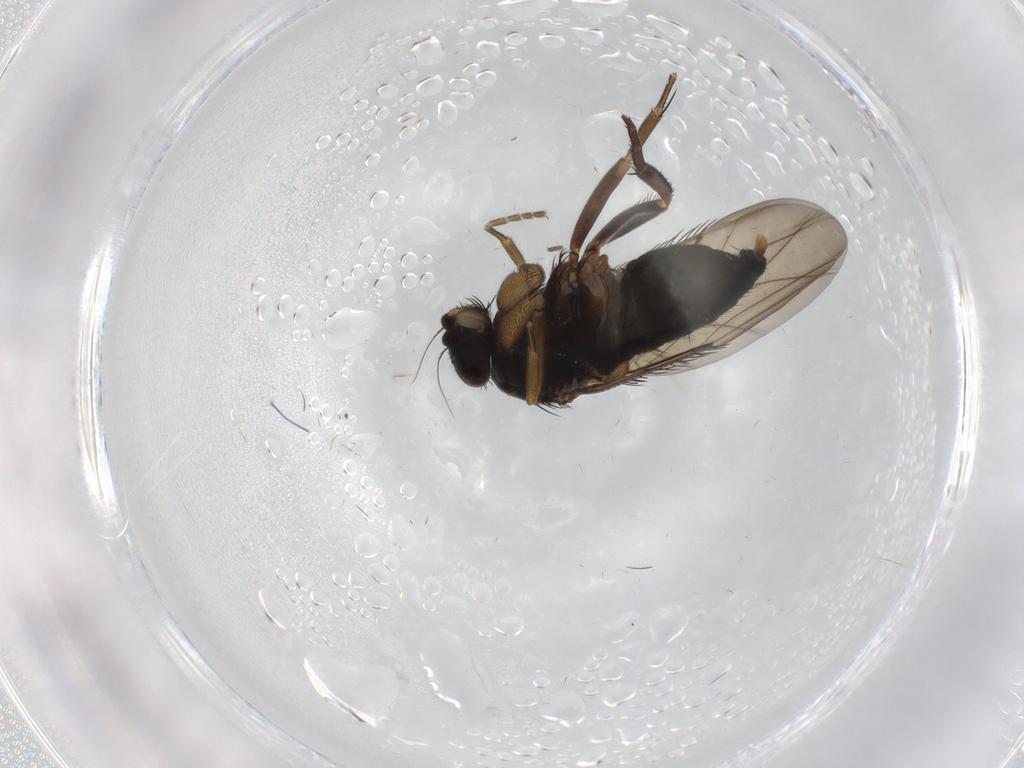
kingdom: Animalia
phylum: Arthropoda
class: Insecta
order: Diptera
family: Phoridae
